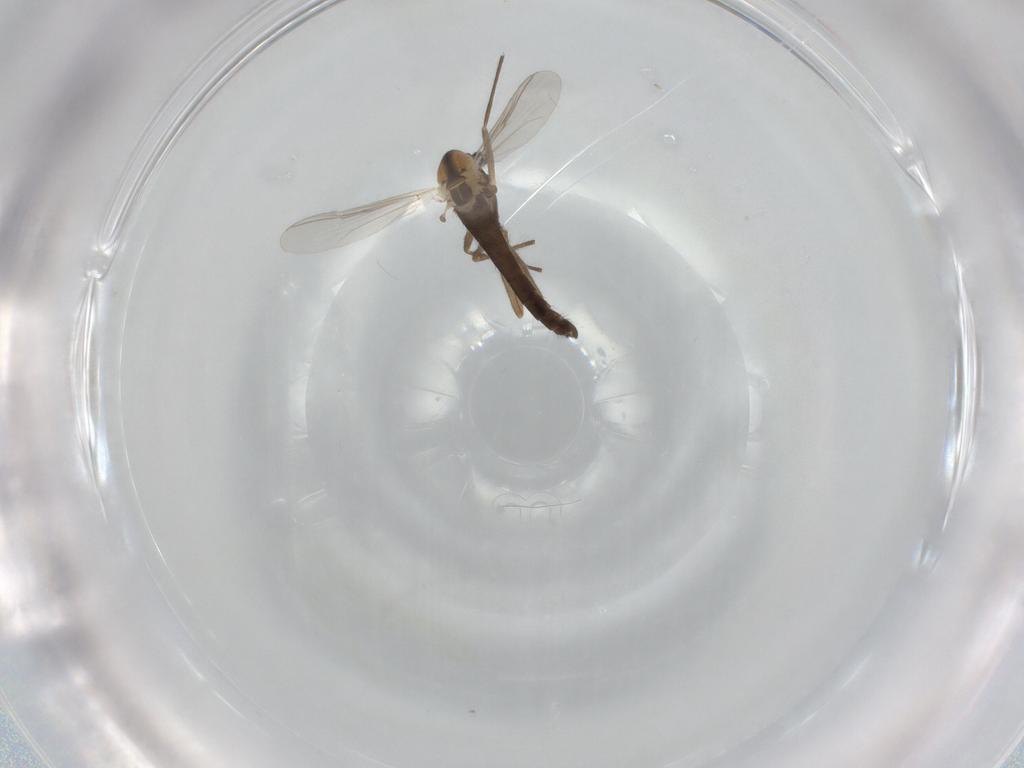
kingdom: Animalia
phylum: Arthropoda
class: Insecta
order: Diptera
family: Chironomidae
